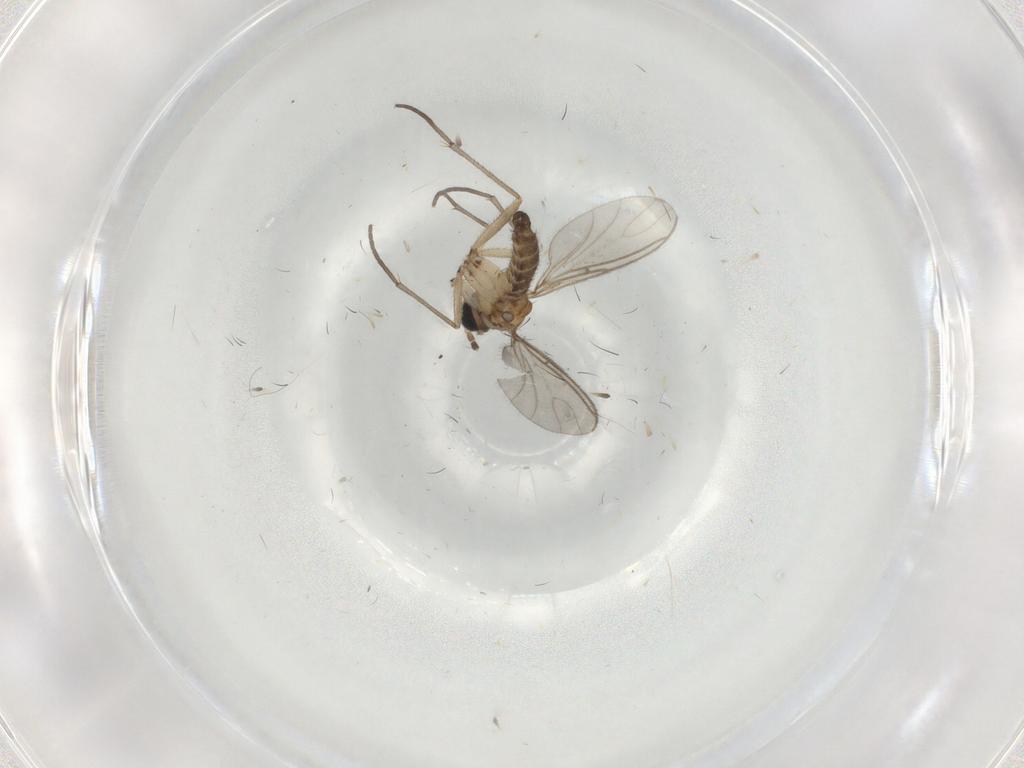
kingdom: Animalia
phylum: Arthropoda
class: Insecta
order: Diptera
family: Sciaridae
